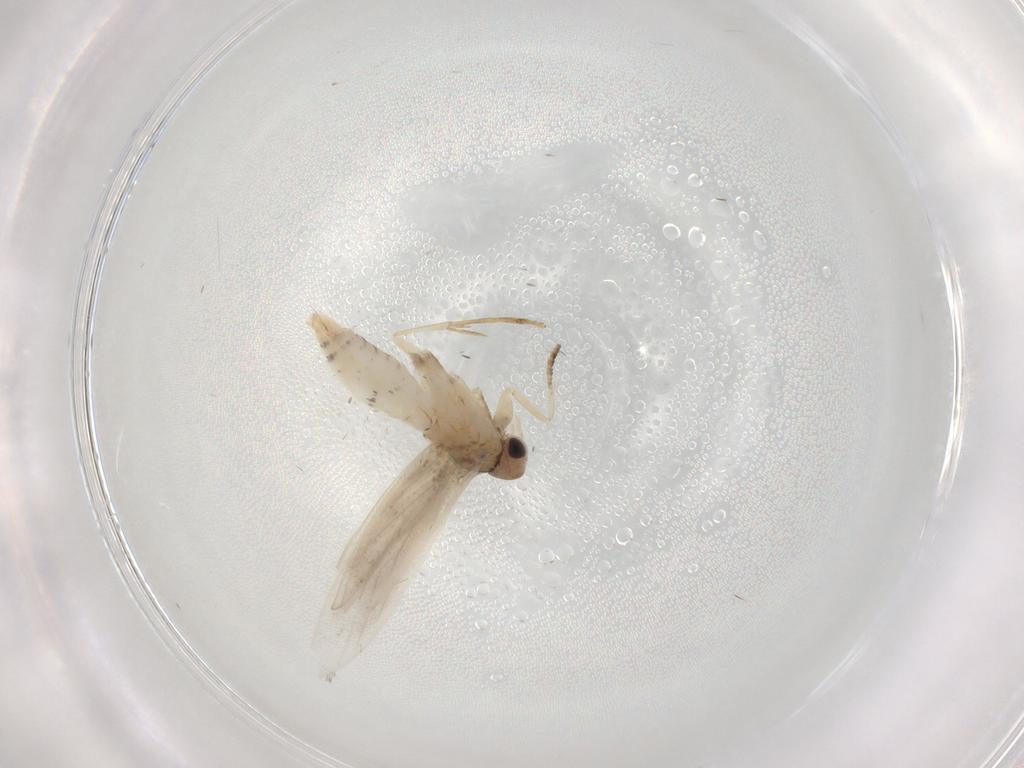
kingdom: Animalia
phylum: Arthropoda
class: Insecta
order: Lepidoptera
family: Tineidae
